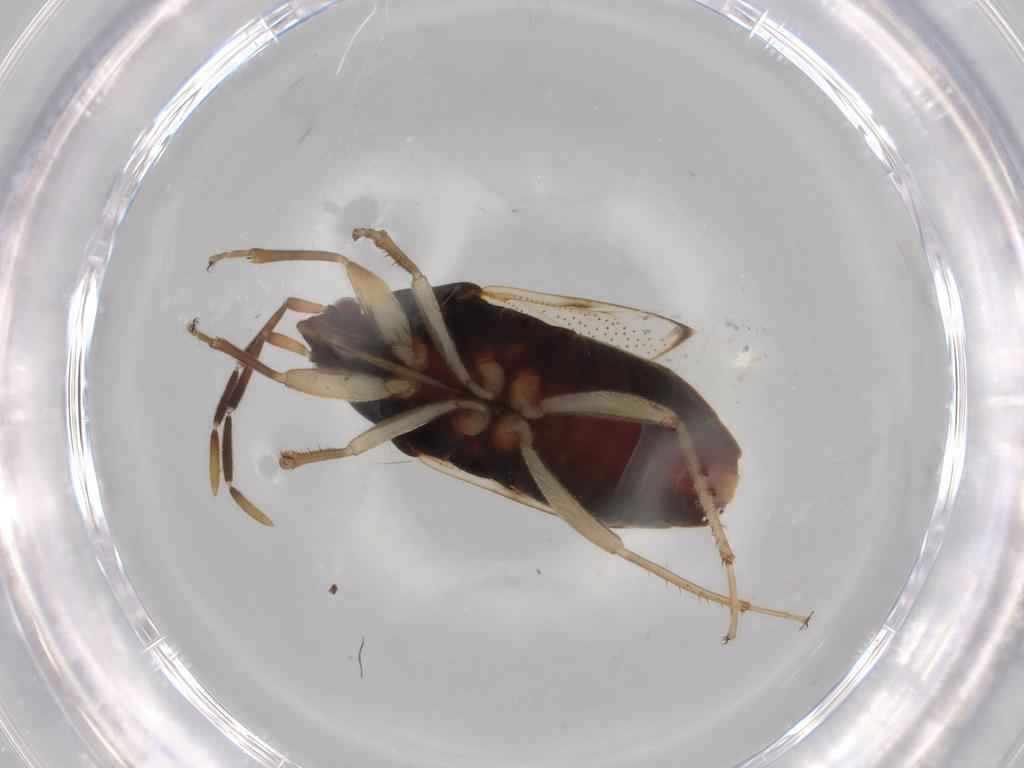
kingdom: Animalia
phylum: Arthropoda
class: Insecta
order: Hemiptera
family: Rhyparochromidae
